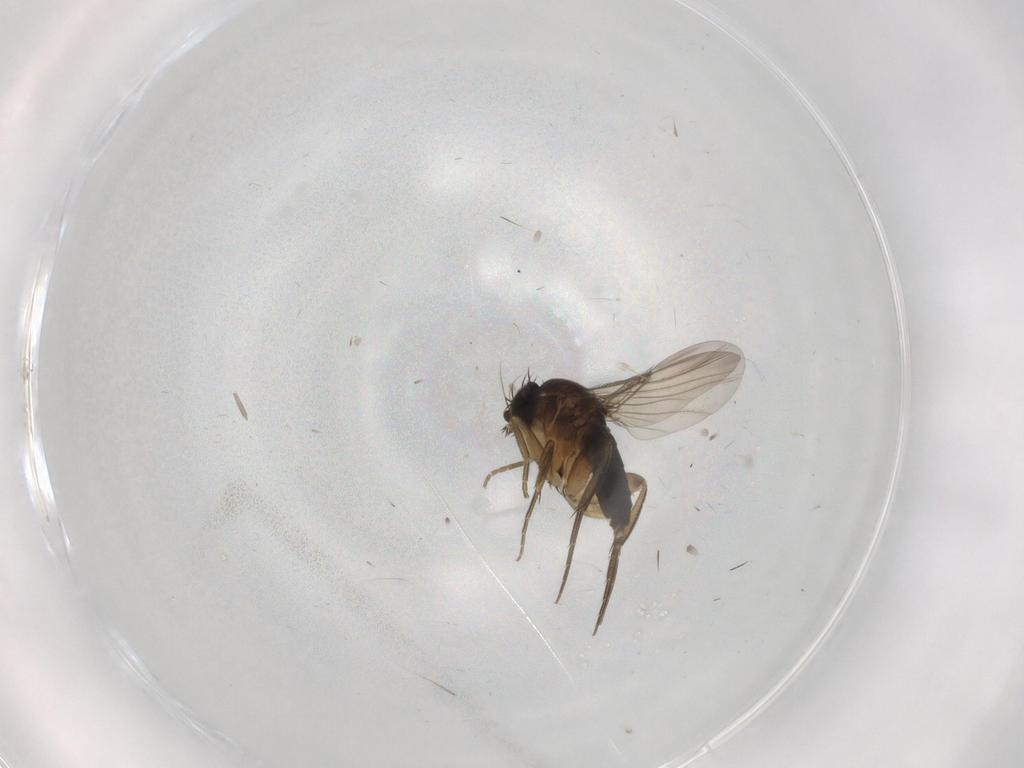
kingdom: Animalia
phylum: Arthropoda
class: Insecta
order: Diptera
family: Phoridae
